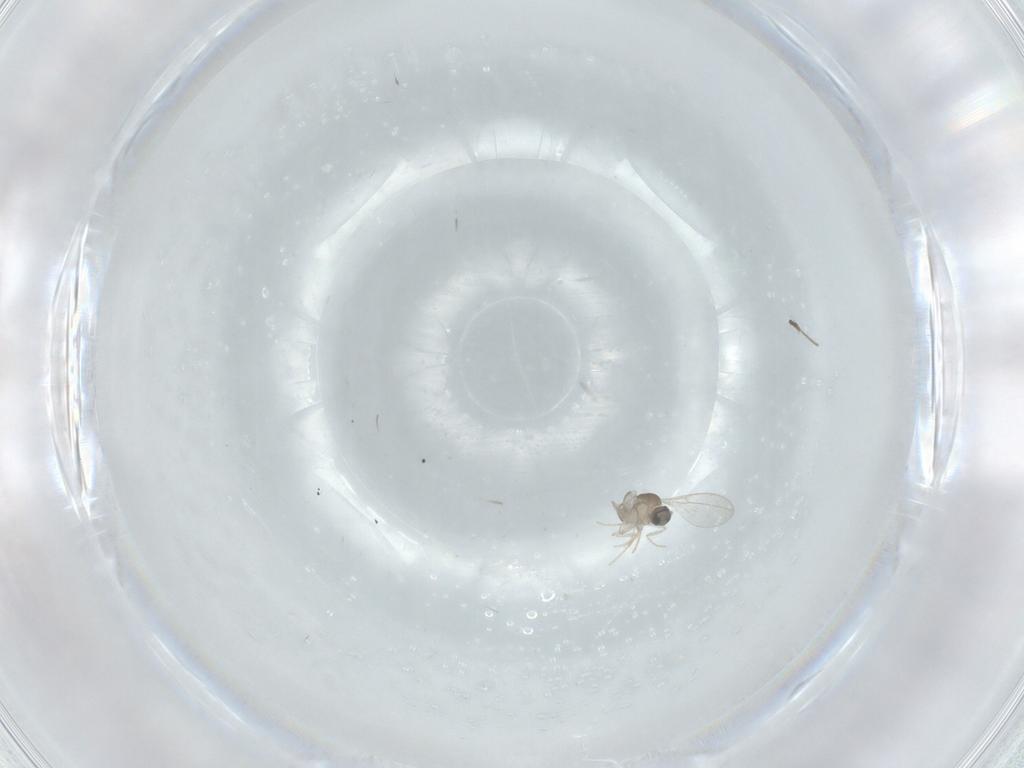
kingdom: Animalia
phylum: Arthropoda
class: Insecta
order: Diptera
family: Cecidomyiidae
